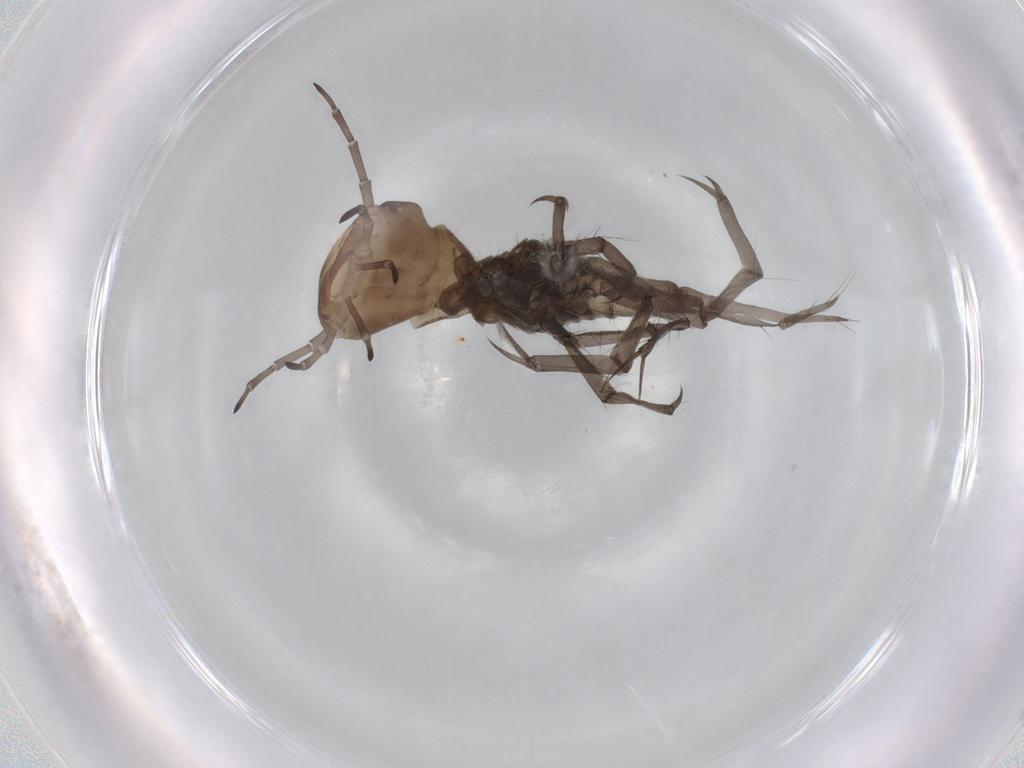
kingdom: Animalia
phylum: Arthropoda
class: Insecta
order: Coleoptera
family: Dytiscidae
